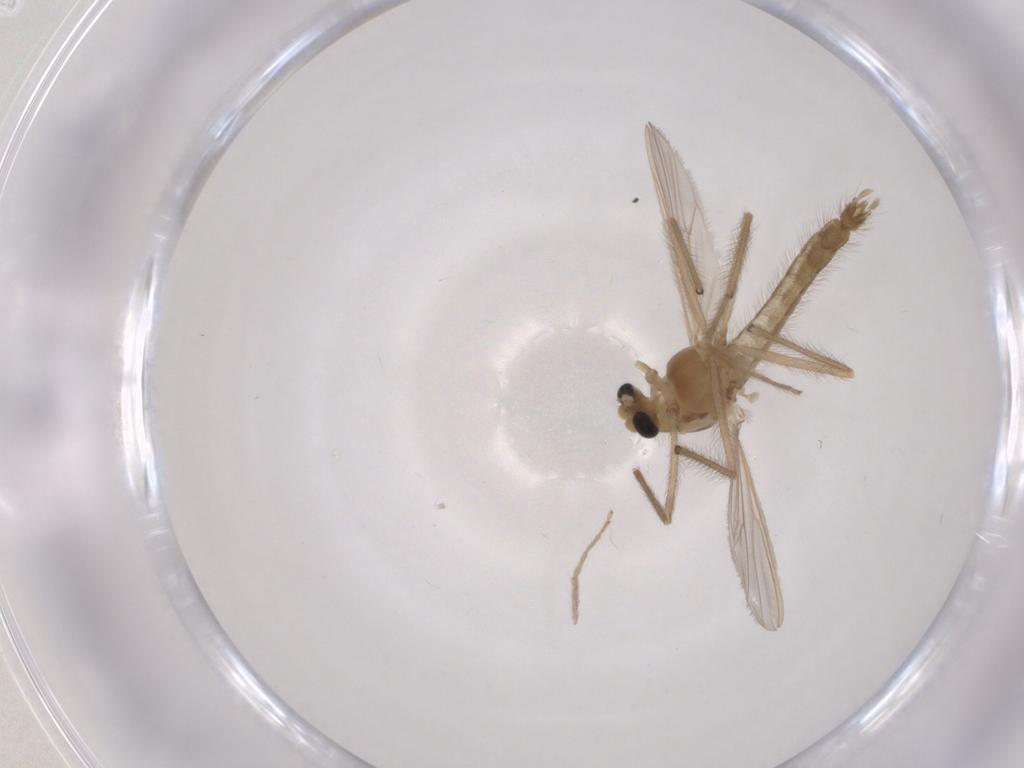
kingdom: Animalia
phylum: Arthropoda
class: Insecta
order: Diptera
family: Chironomidae
